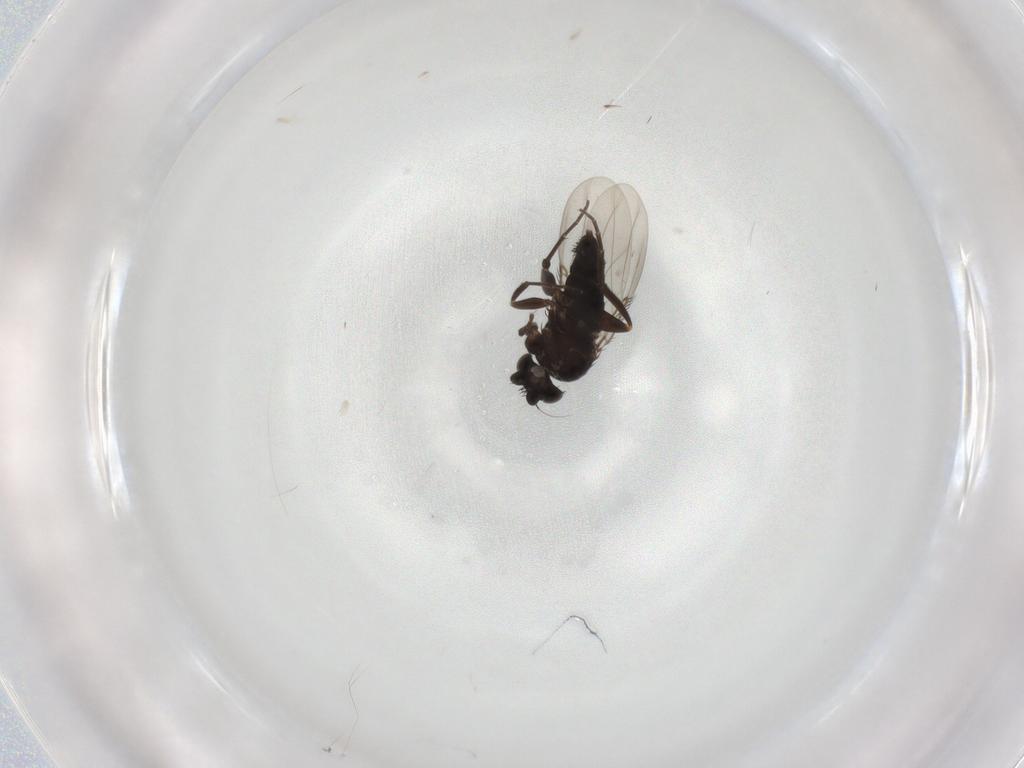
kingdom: Animalia
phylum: Arthropoda
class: Insecta
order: Diptera
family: Phoridae
